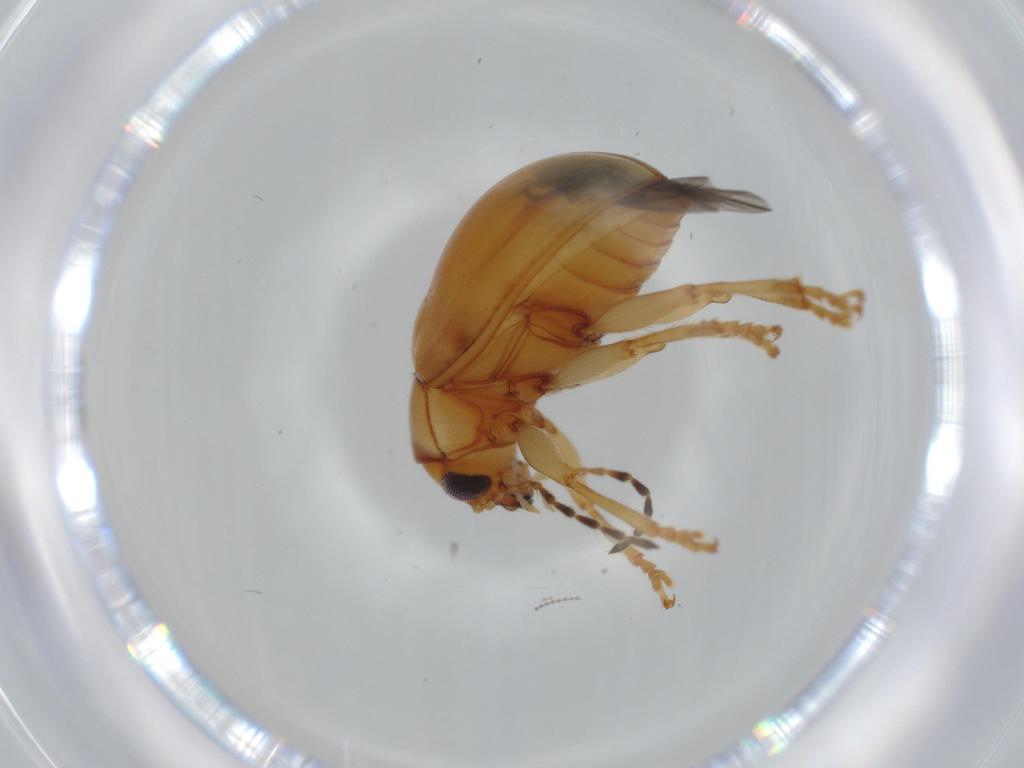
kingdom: Animalia
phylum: Arthropoda
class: Insecta
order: Coleoptera
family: Chrysomelidae
